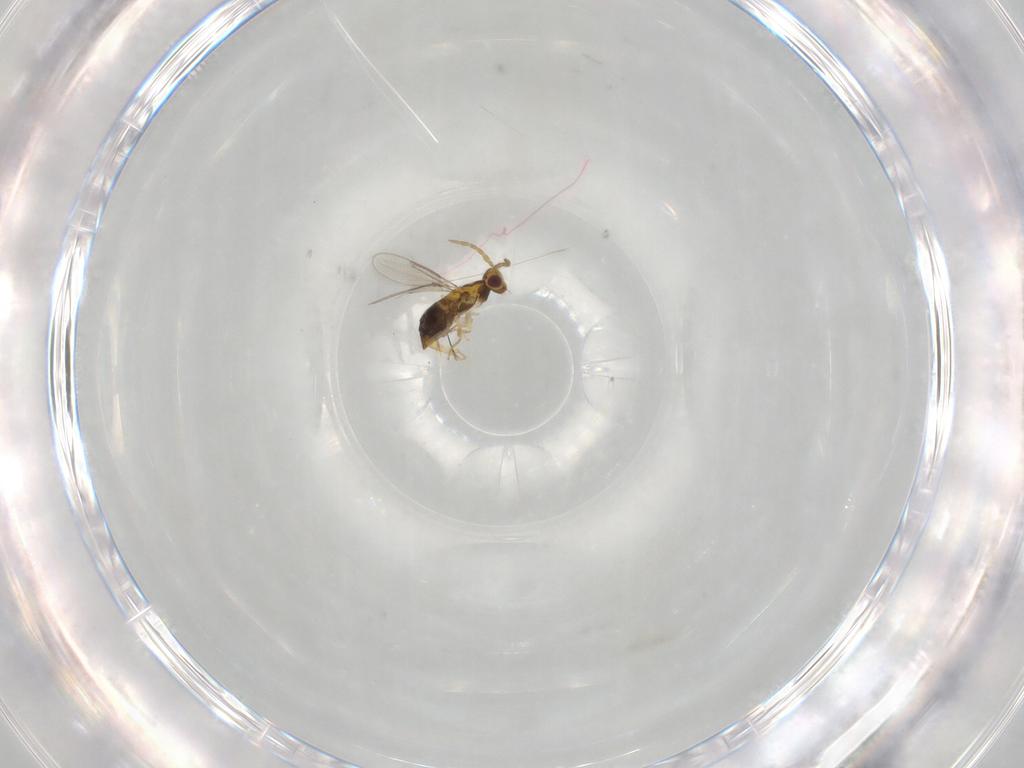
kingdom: Animalia
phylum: Arthropoda
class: Insecta
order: Hymenoptera
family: Aphelinidae
